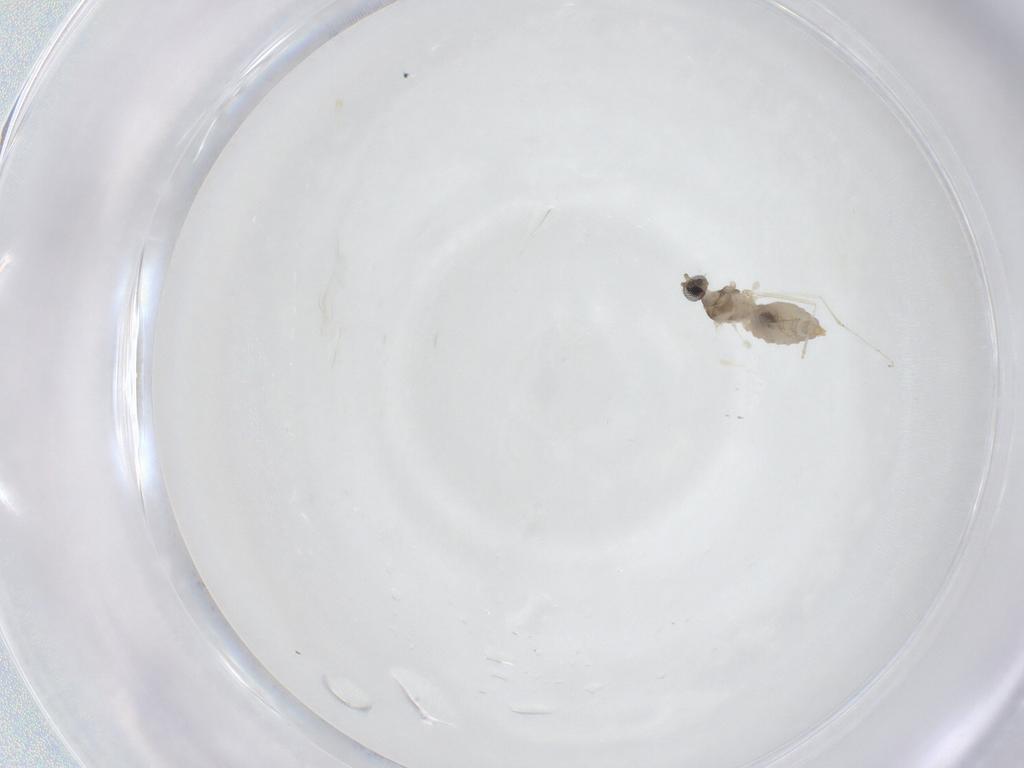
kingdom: Animalia
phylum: Arthropoda
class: Insecta
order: Diptera
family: Cecidomyiidae
